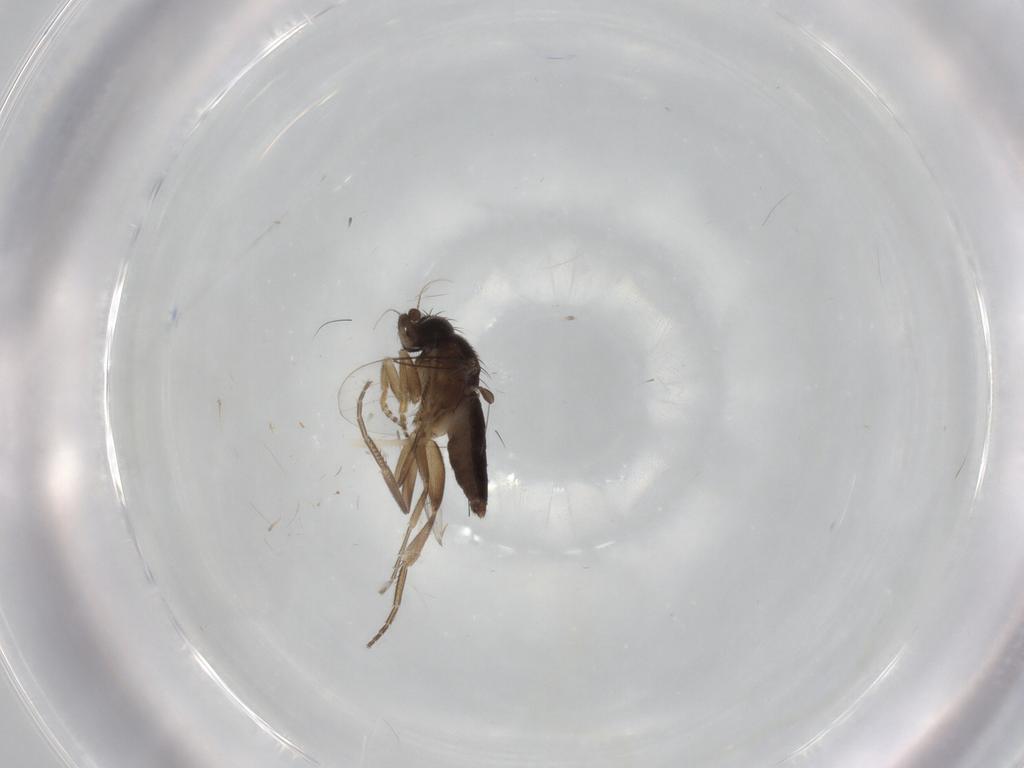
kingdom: Animalia
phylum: Arthropoda
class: Insecta
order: Diptera
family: Phoridae
